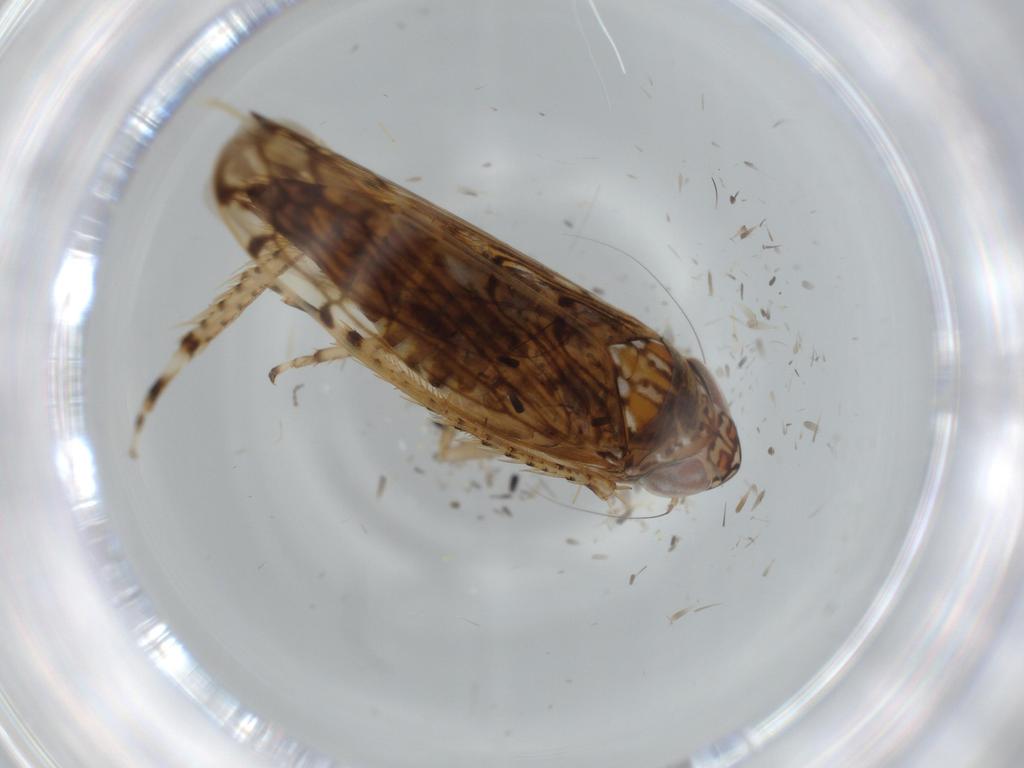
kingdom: Animalia
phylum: Arthropoda
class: Insecta
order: Hemiptera
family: Cicadellidae
